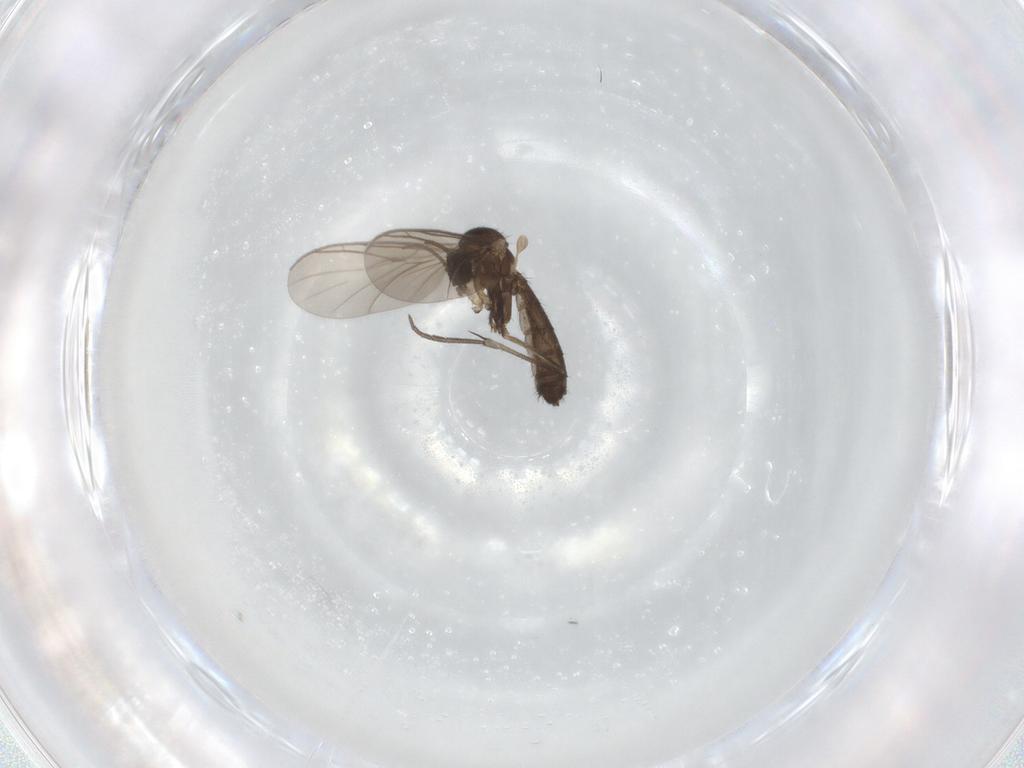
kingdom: Animalia
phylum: Arthropoda
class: Insecta
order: Diptera
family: Keroplatidae
